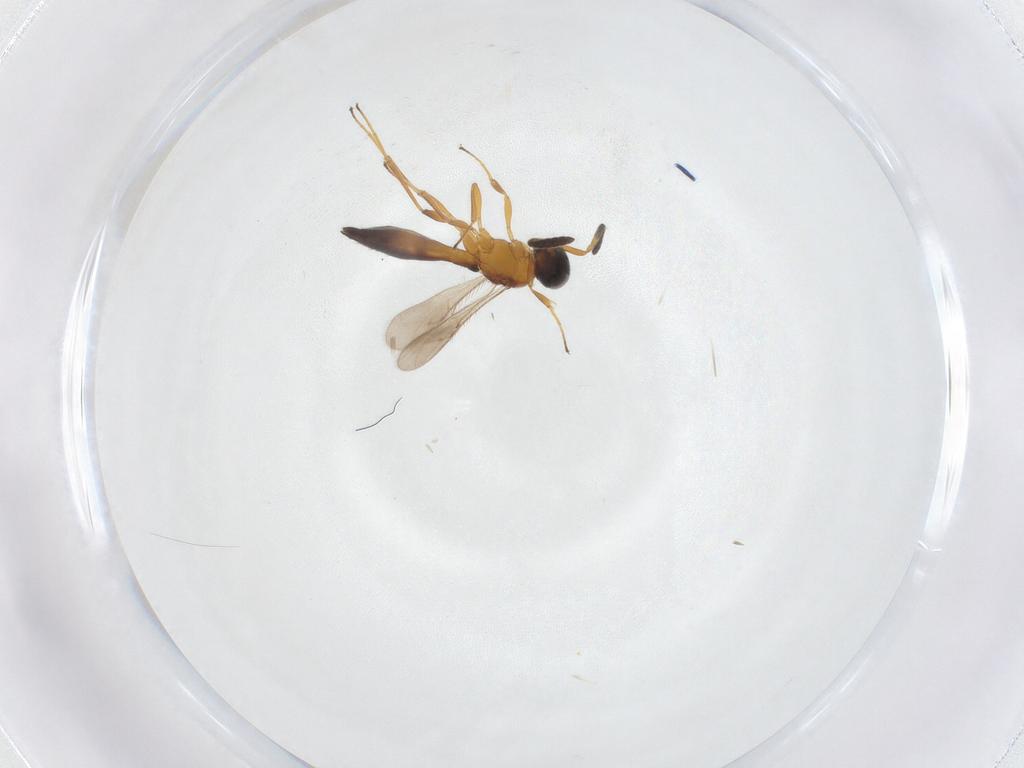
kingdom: Animalia
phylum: Arthropoda
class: Insecta
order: Hymenoptera
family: Scelionidae
